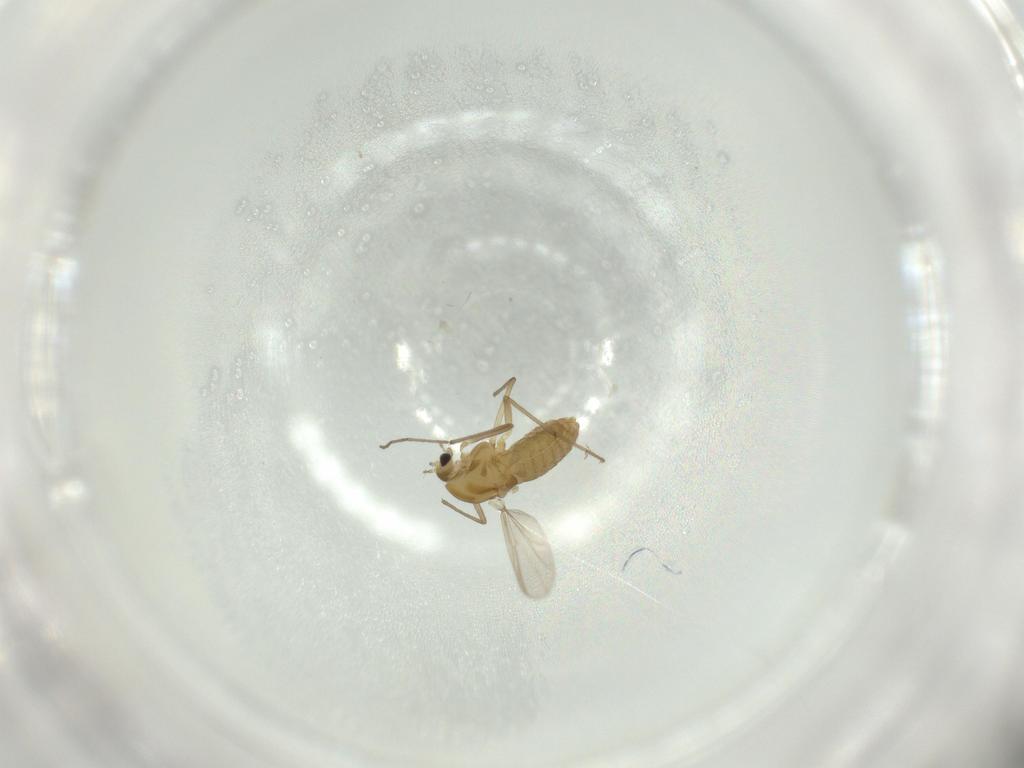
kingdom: Animalia
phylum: Arthropoda
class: Insecta
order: Diptera
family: Chironomidae
